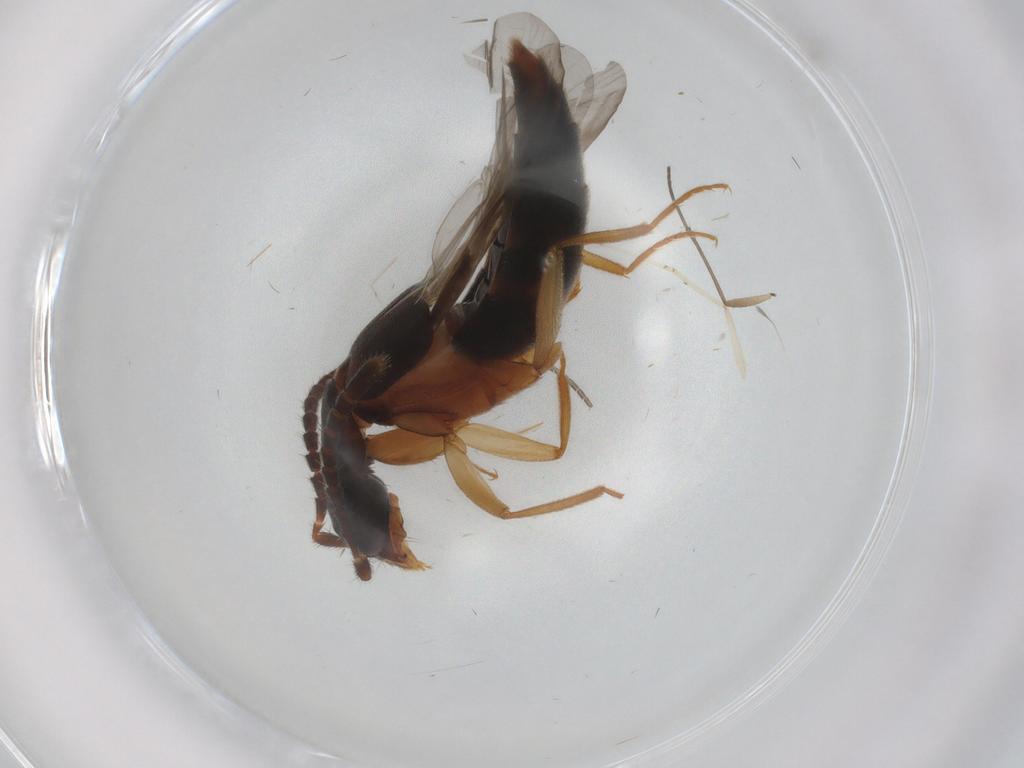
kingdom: Animalia
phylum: Arthropoda
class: Insecta
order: Coleoptera
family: Staphylinidae
